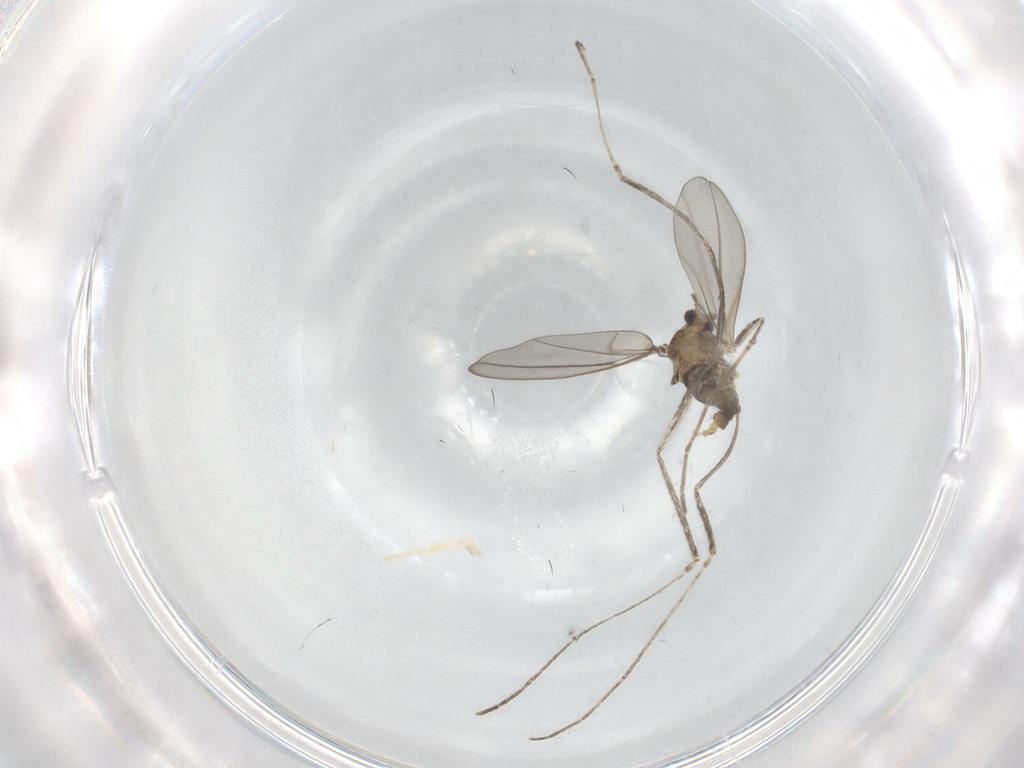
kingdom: Animalia
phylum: Arthropoda
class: Insecta
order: Diptera
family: Cecidomyiidae
